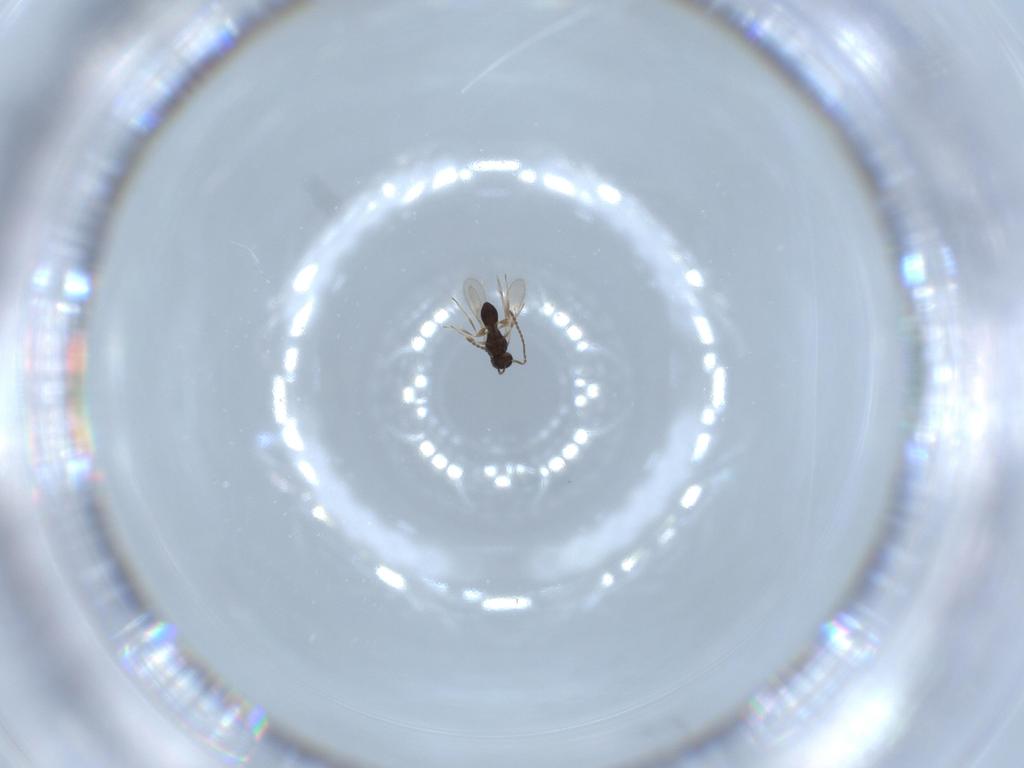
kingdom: Animalia
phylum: Arthropoda
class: Insecta
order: Hymenoptera
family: Scelionidae
